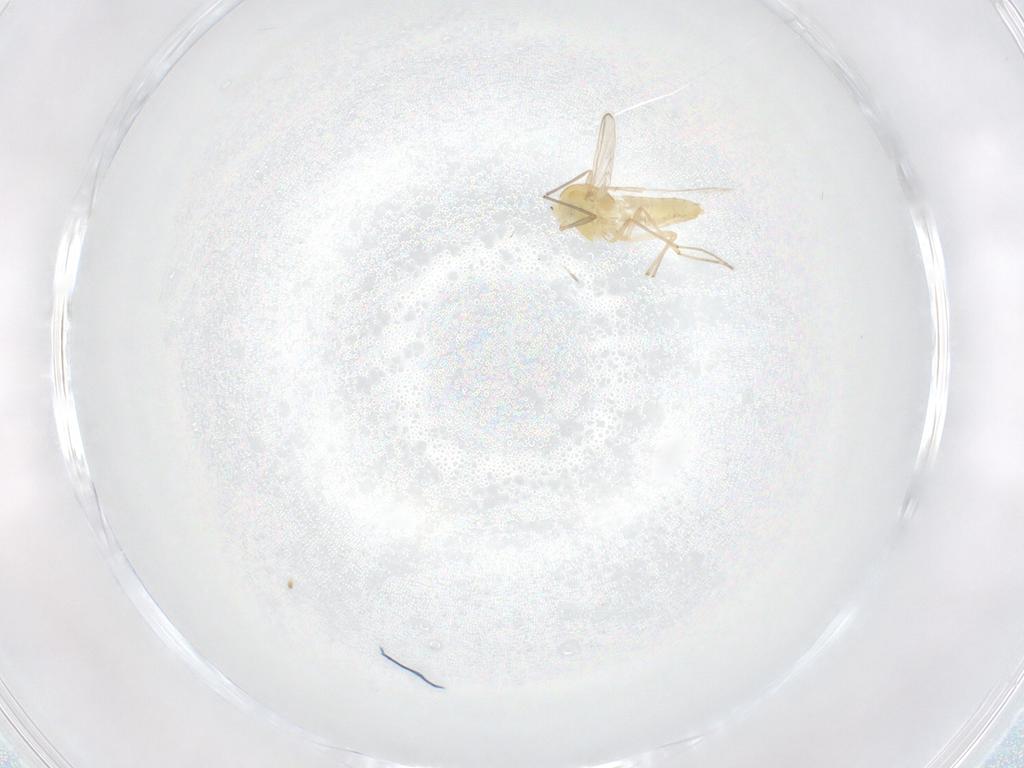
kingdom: Animalia
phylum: Arthropoda
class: Insecta
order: Diptera
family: Chironomidae
